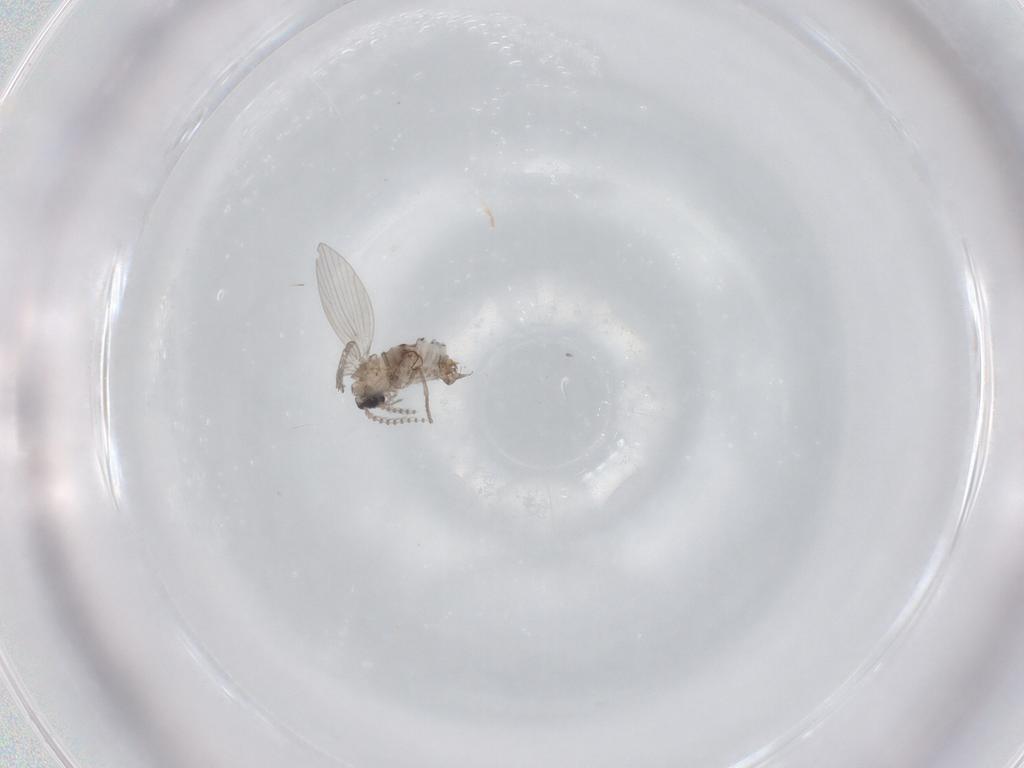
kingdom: Animalia
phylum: Arthropoda
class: Insecta
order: Diptera
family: Psychodidae
